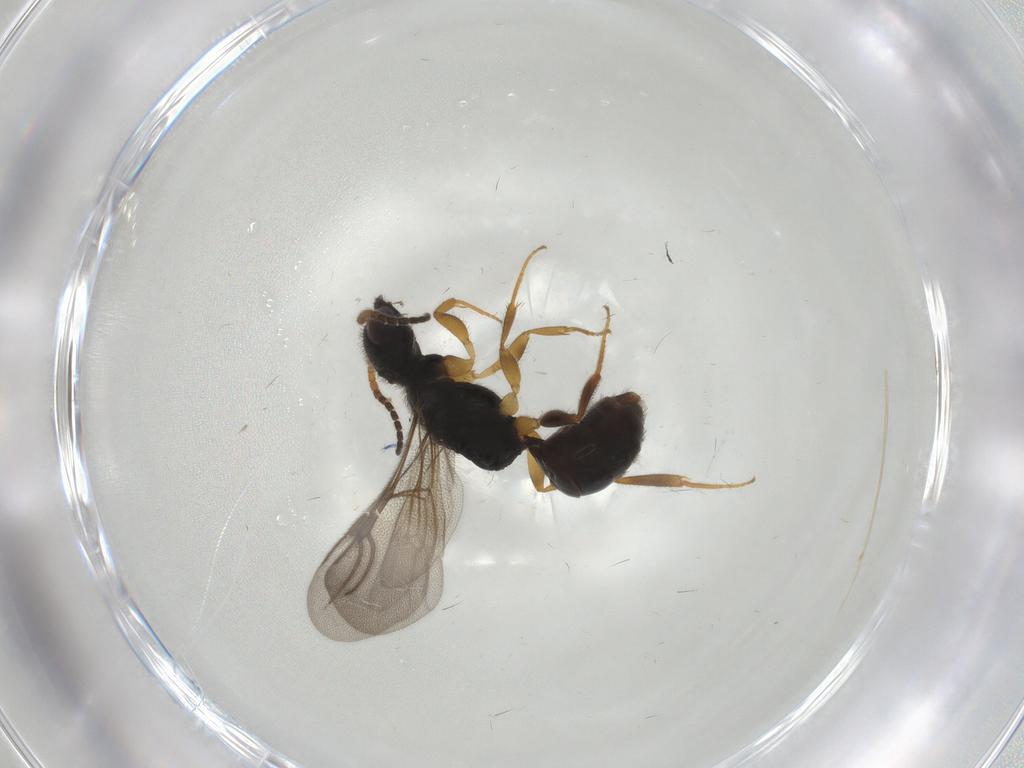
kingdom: Animalia
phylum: Arthropoda
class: Insecta
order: Hymenoptera
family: Bethylidae
